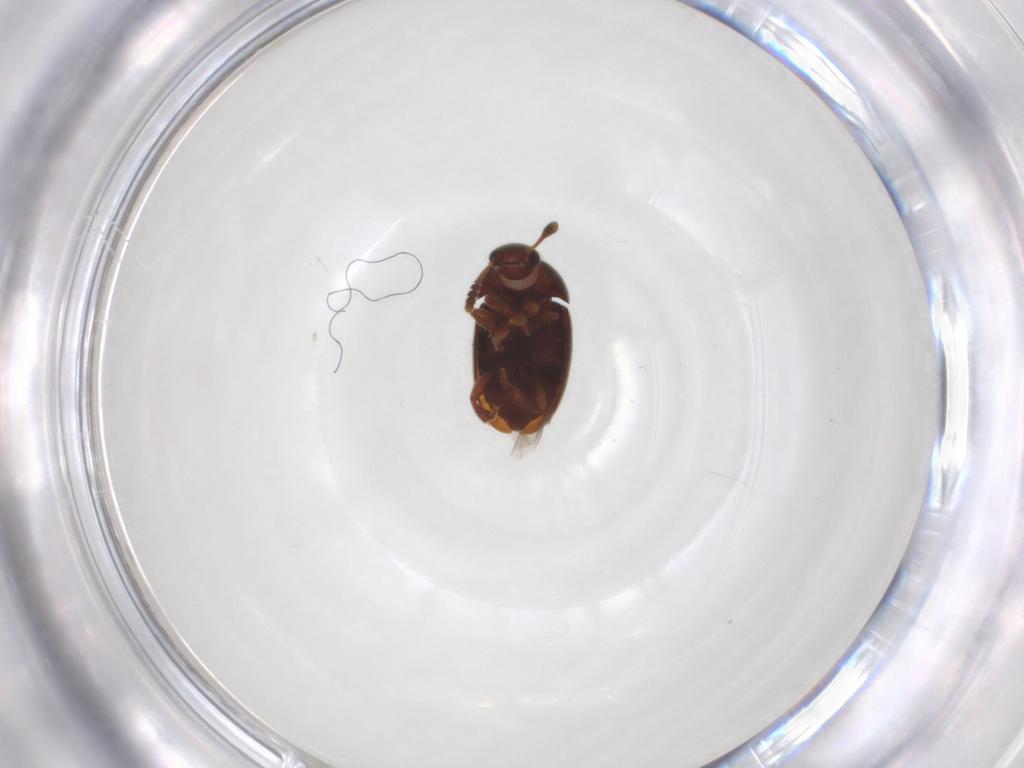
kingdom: Animalia
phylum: Arthropoda
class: Insecta
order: Coleoptera
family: Leiodidae
